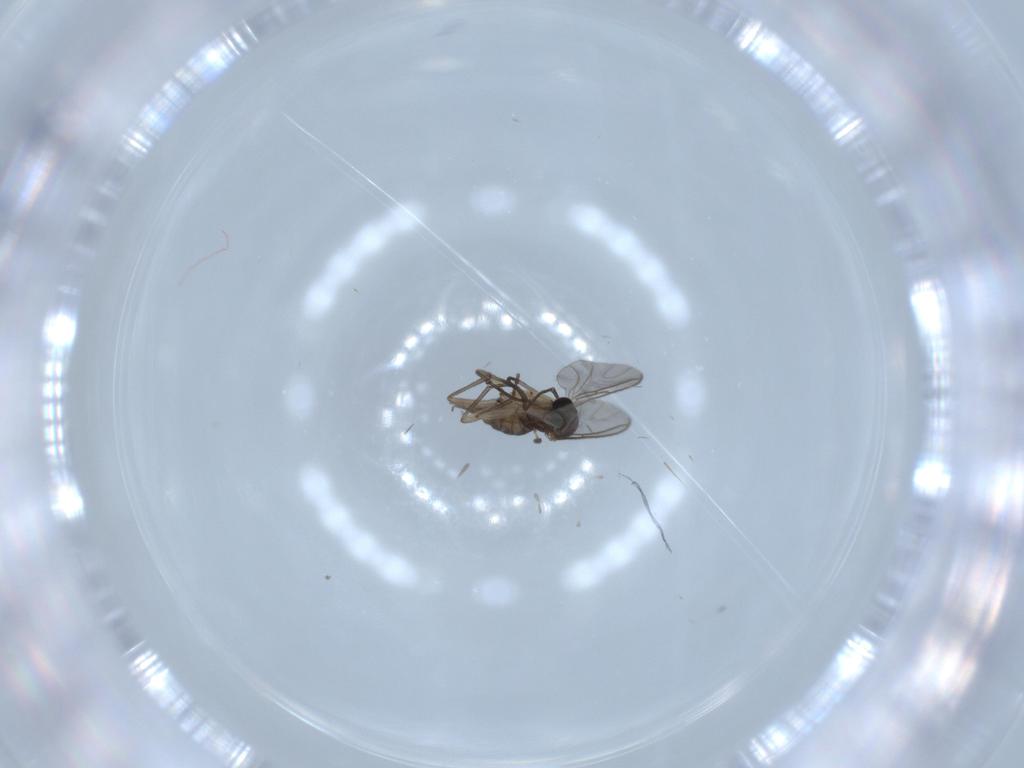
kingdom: Animalia
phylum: Arthropoda
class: Insecta
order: Diptera
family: Sciaridae
